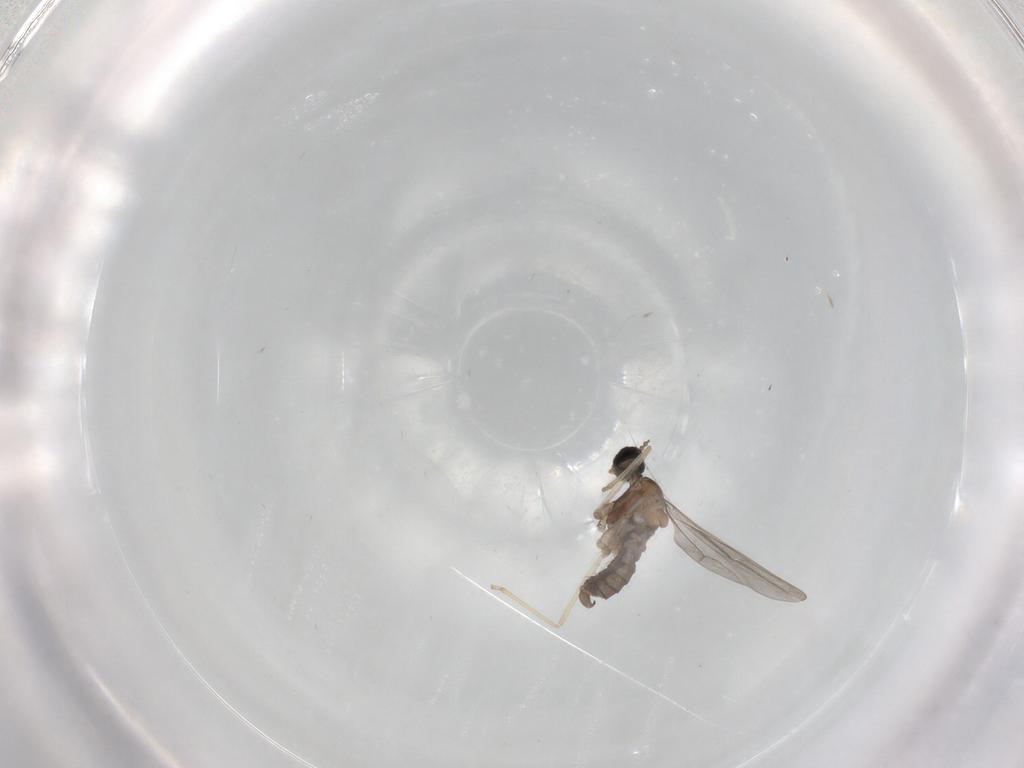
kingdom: Animalia
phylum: Arthropoda
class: Insecta
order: Diptera
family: Cecidomyiidae
